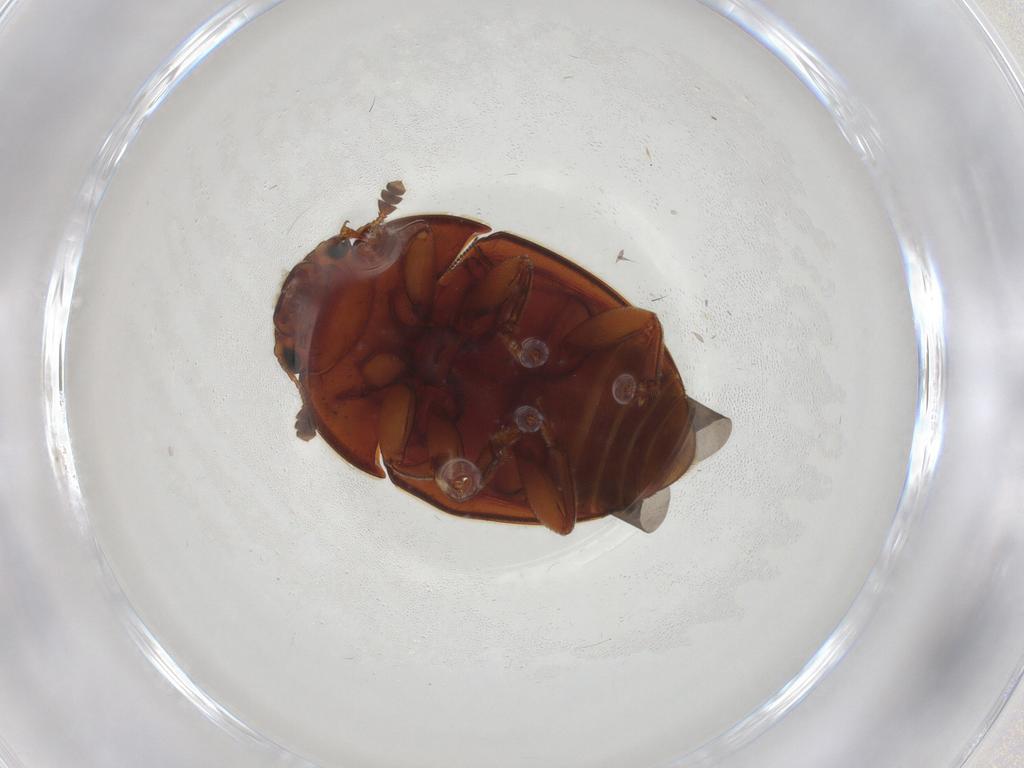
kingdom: Animalia
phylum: Arthropoda
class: Insecta
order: Coleoptera
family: Nitidulidae
